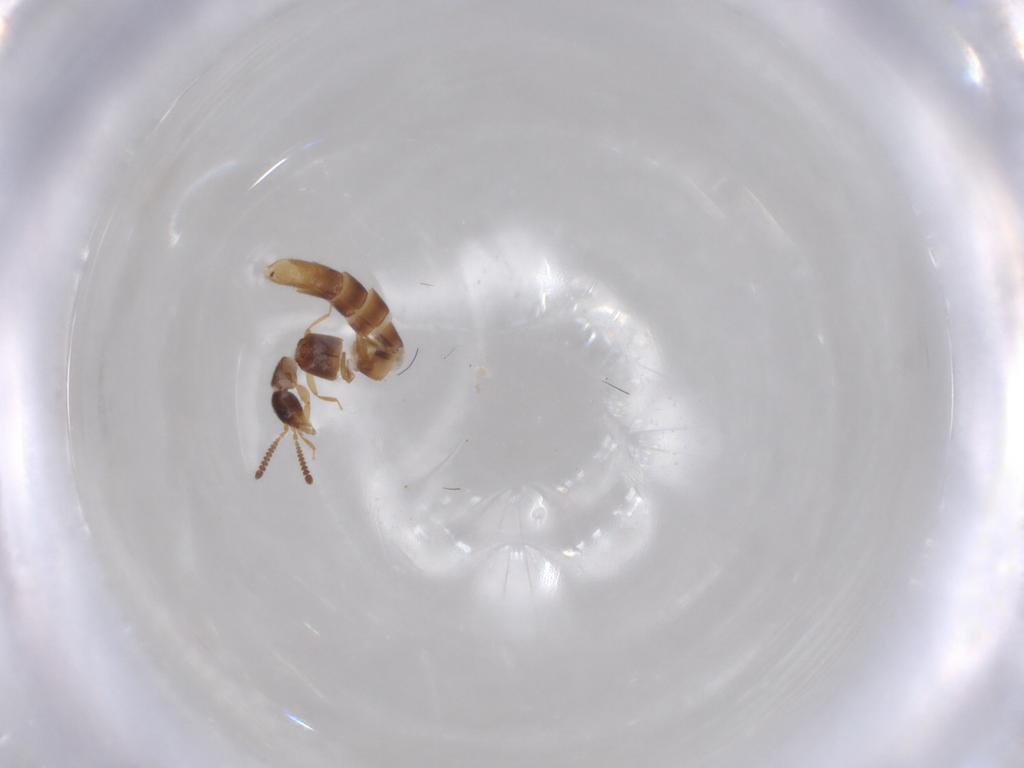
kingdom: Animalia
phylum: Arthropoda
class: Insecta
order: Coleoptera
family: Staphylinidae
